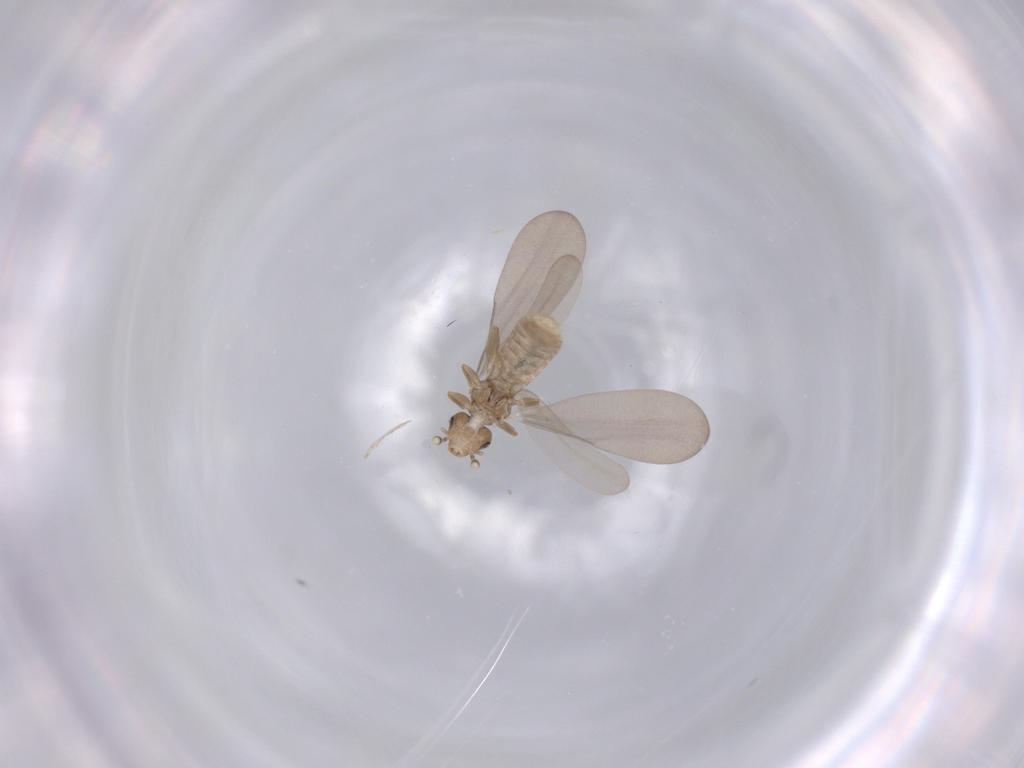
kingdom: Animalia
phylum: Arthropoda
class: Insecta
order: Psocodea
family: Liposcelididae
